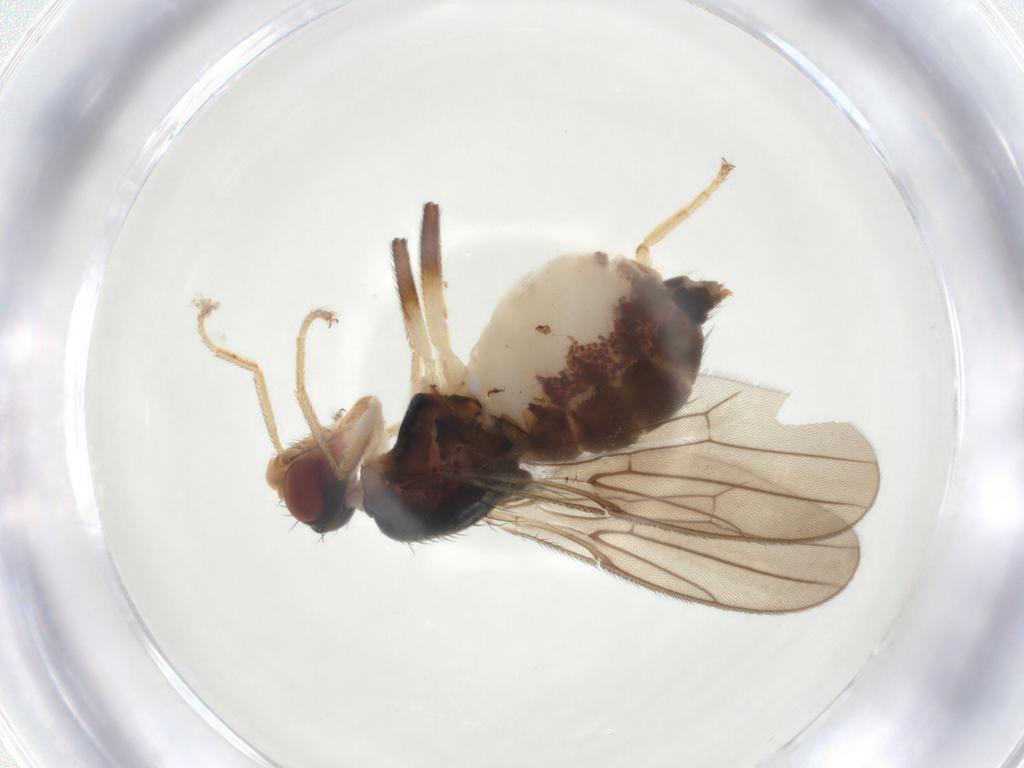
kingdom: Animalia
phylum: Arthropoda
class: Insecta
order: Diptera
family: Chloropidae
